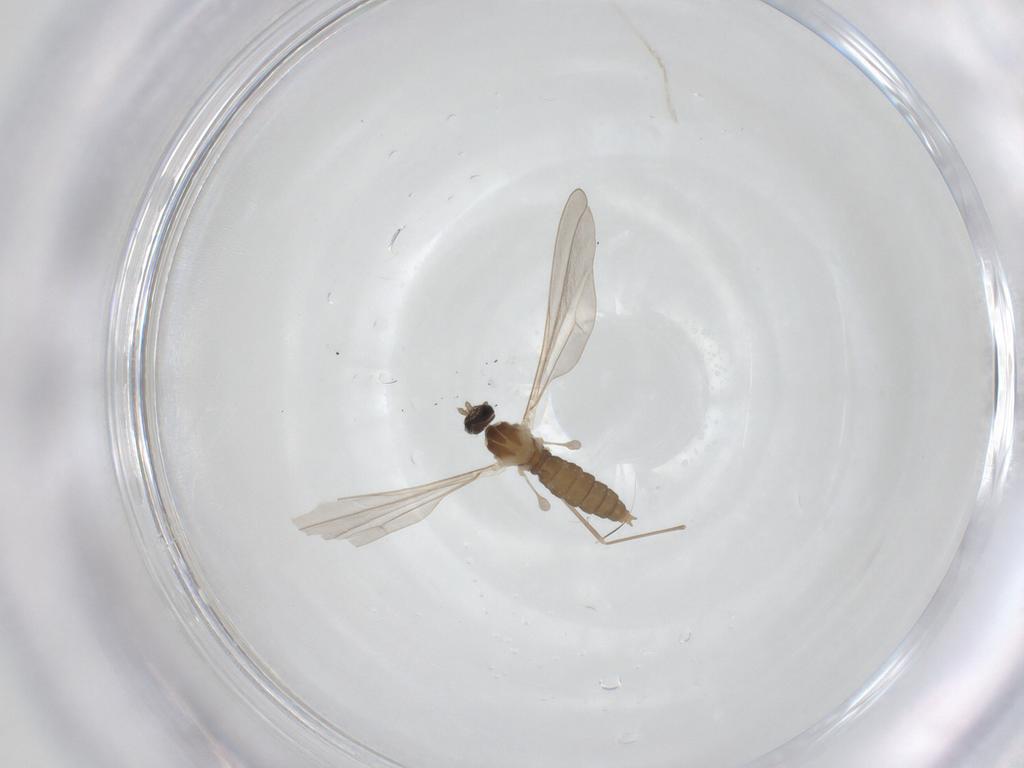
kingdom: Animalia
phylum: Arthropoda
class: Insecta
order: Diptera
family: Cecidomyiidae
